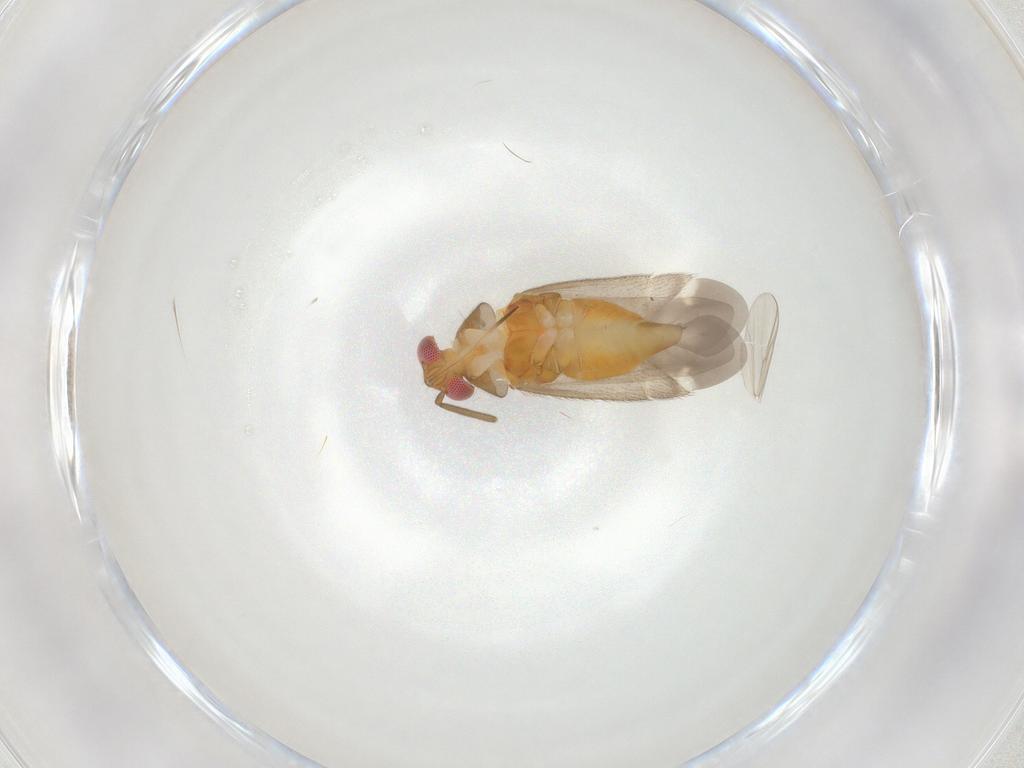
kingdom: Animalia
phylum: Arthropoda
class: Insecta
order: Hemiptera
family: Miridae
